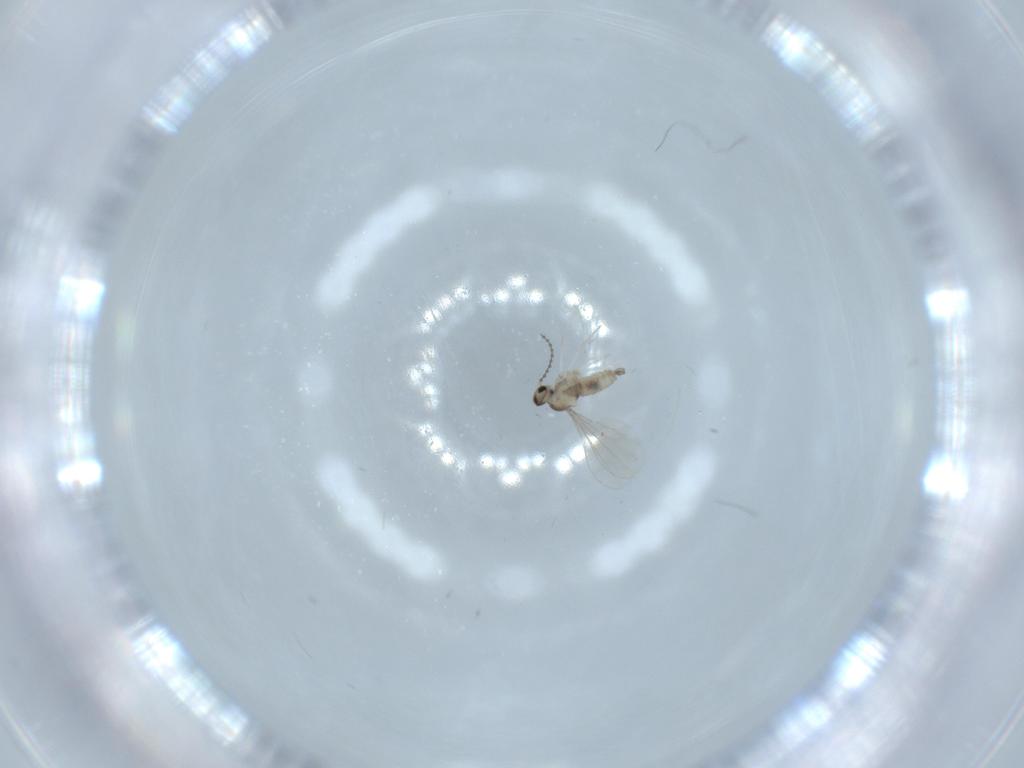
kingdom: Animalia
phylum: Arthropoda
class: Insecta
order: Diptera
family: Cecidomyiidae
